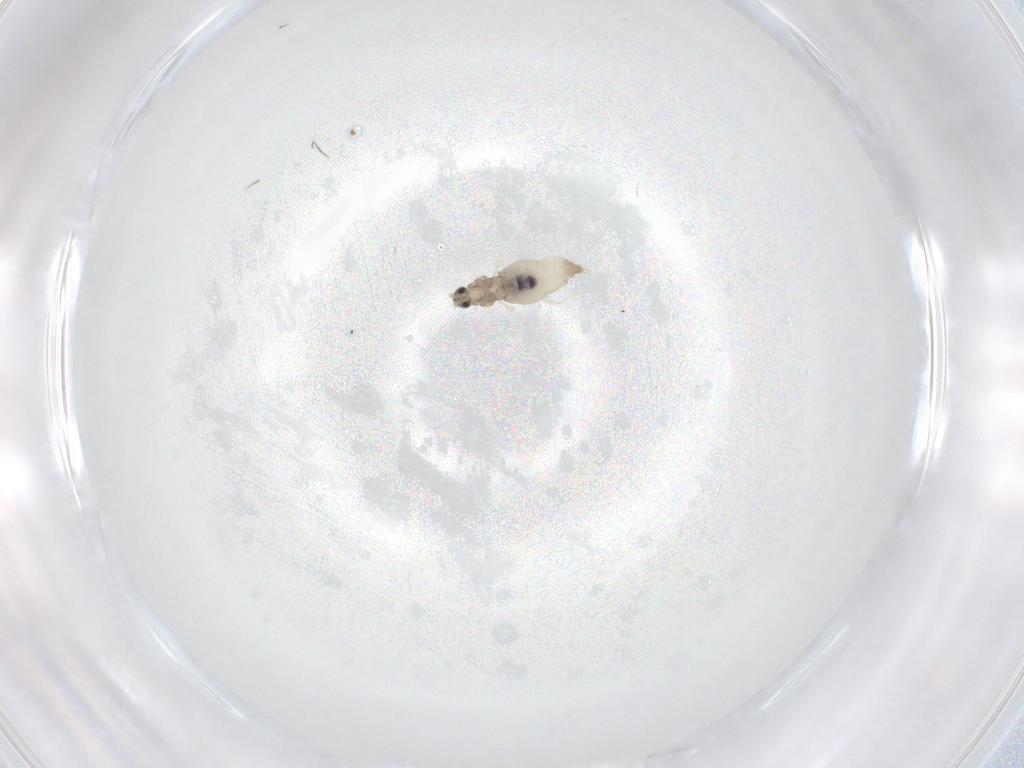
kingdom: Animalia
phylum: Arthropoda
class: Insecta
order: Diptera
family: Cecidomyiidae
